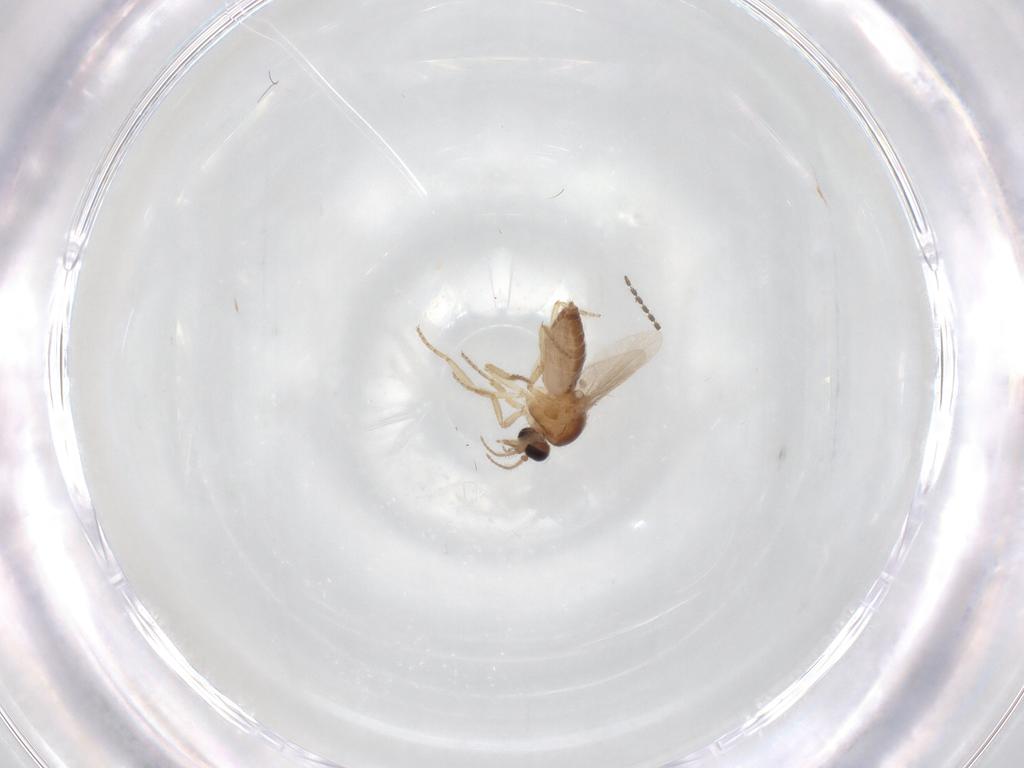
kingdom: Animalia
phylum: Arthropoda
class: Insecta
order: Diptera
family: Ceratopogonidae
